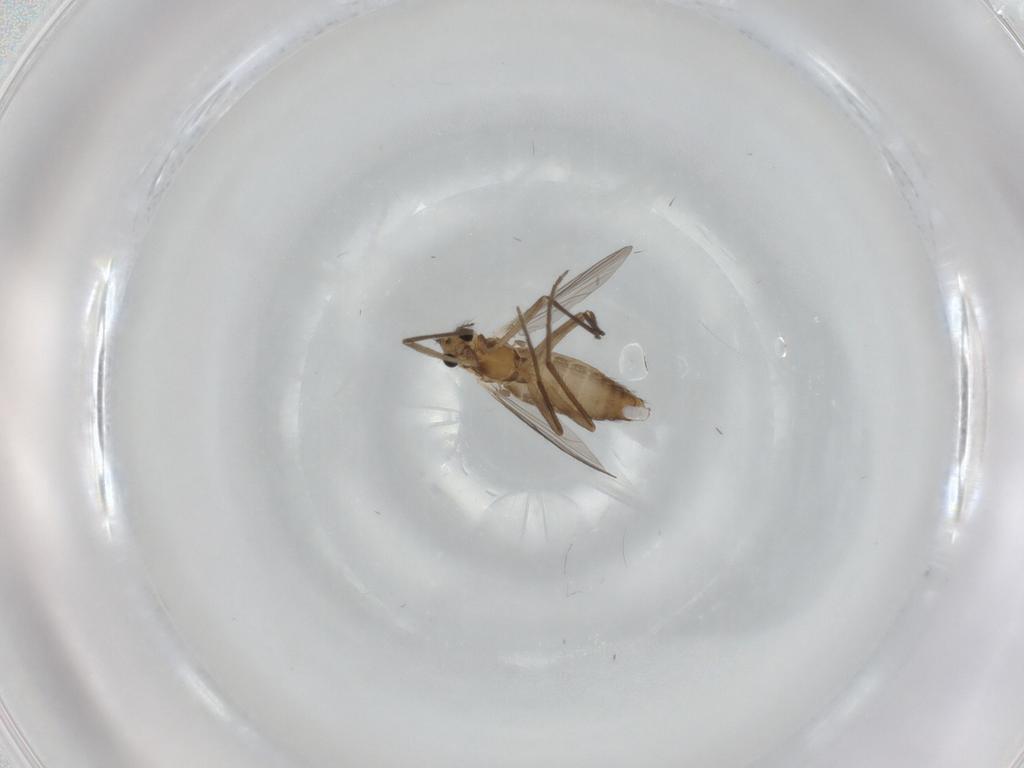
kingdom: Animalia
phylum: Arthropoda
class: Insecta
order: Diptera
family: Chironomidae
